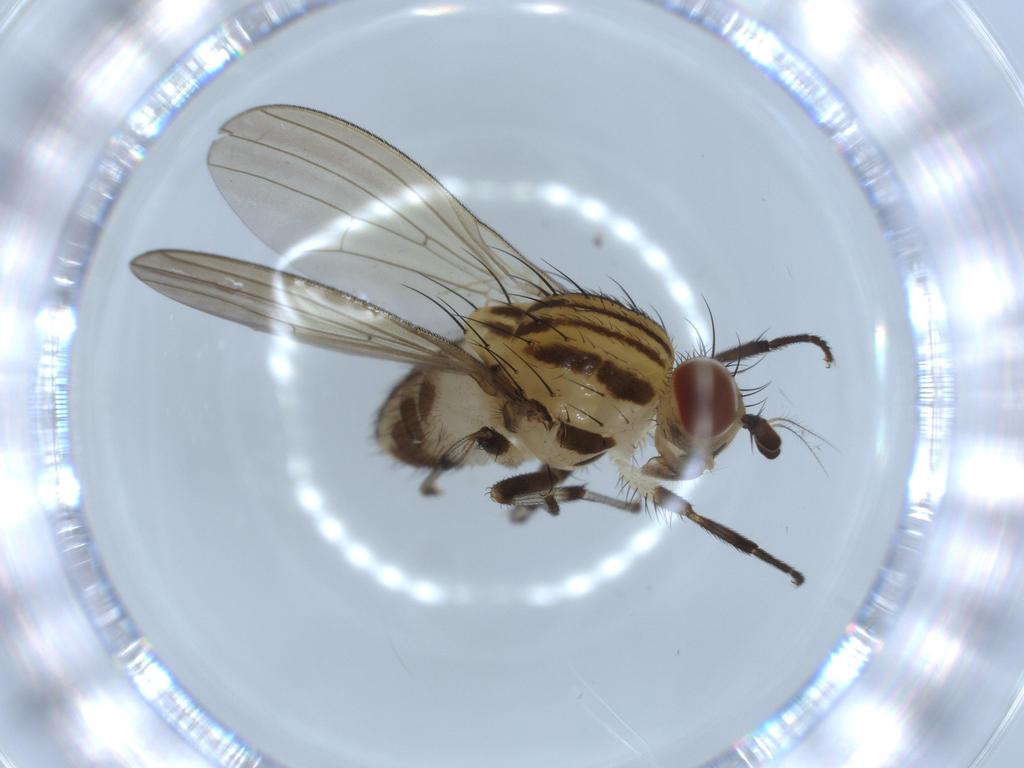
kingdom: Animalia
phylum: Arthropoda
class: Insecta
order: Diptera
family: Lauxaniidae
